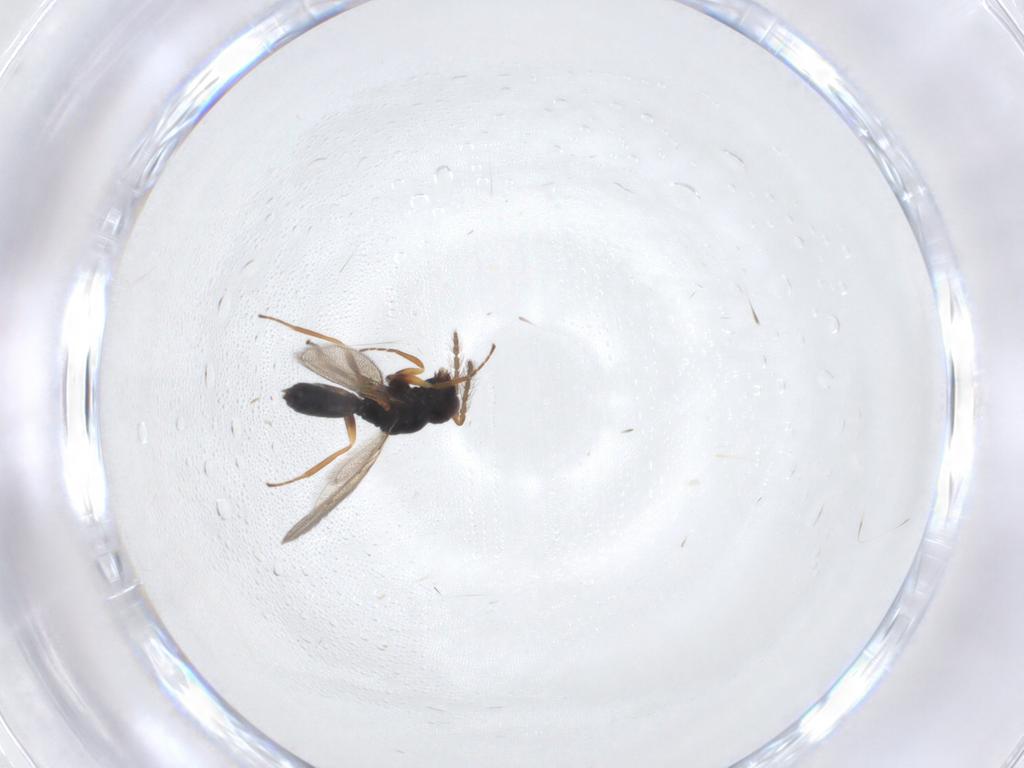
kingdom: Animalia
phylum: Arthropoda
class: Insecta
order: Hymenoptera
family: Eulophidae
